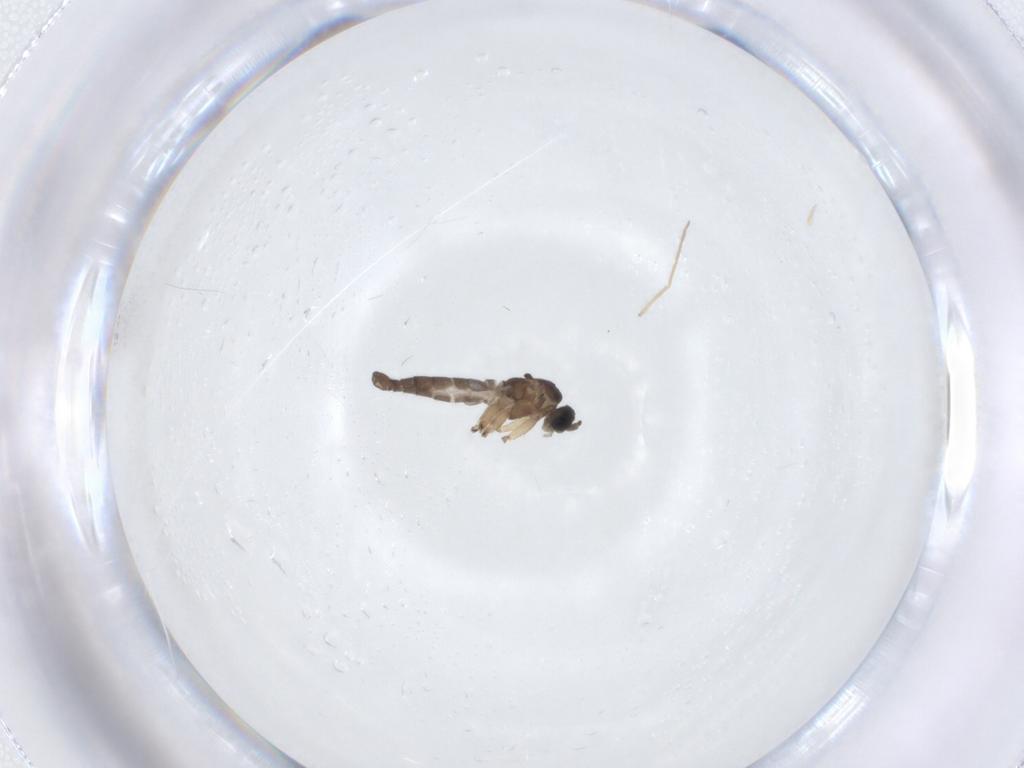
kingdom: Animalia
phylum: Arthropoda
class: Insecta
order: Diptera
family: Sciaridae
